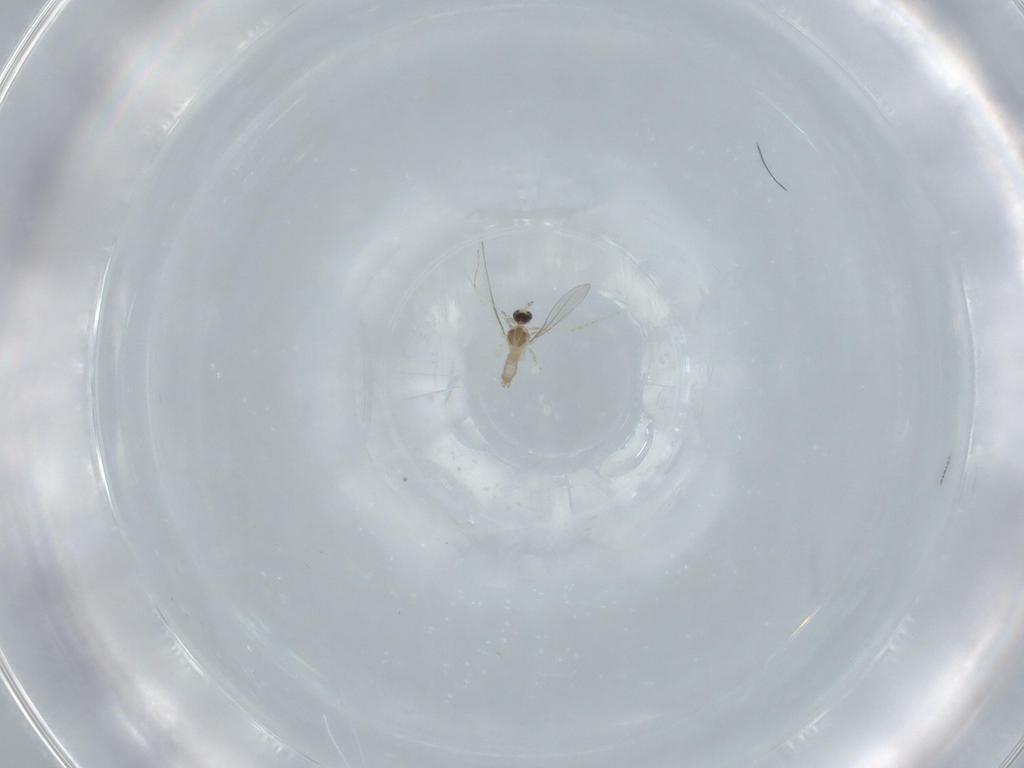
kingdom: Animalia
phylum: Arthropoda
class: Insecta
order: Diptera
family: Cecidomyiidae
